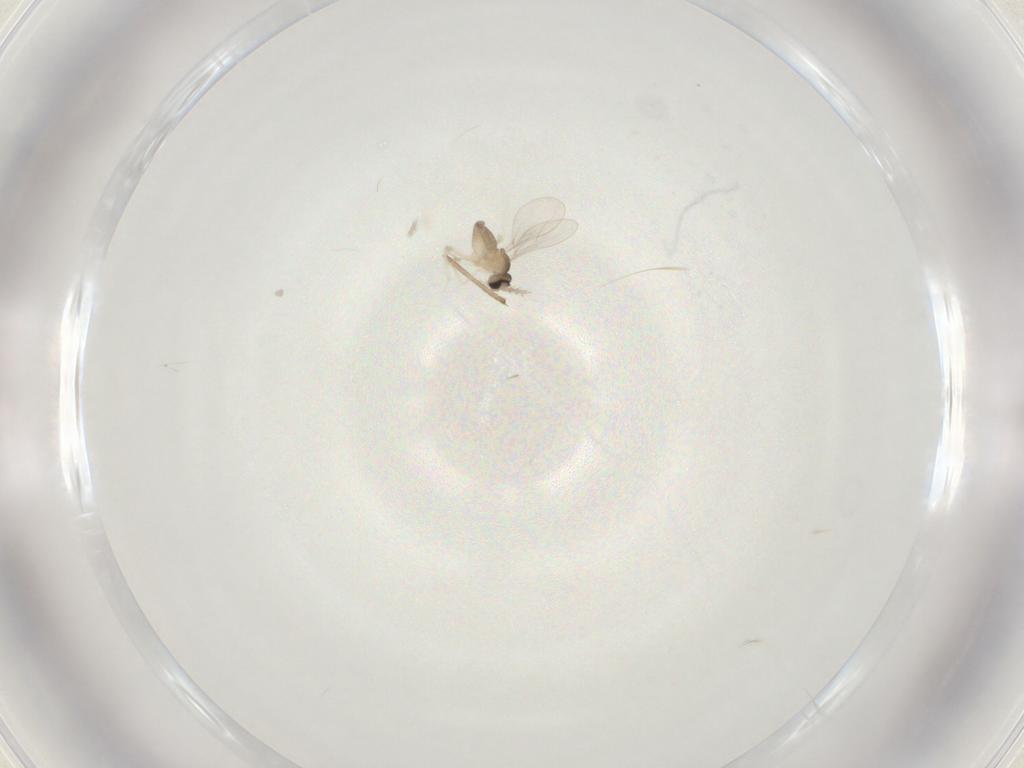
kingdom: Animalia
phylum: Arthropoda
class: Insecta
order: Diptera
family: Cecidomyiidae
